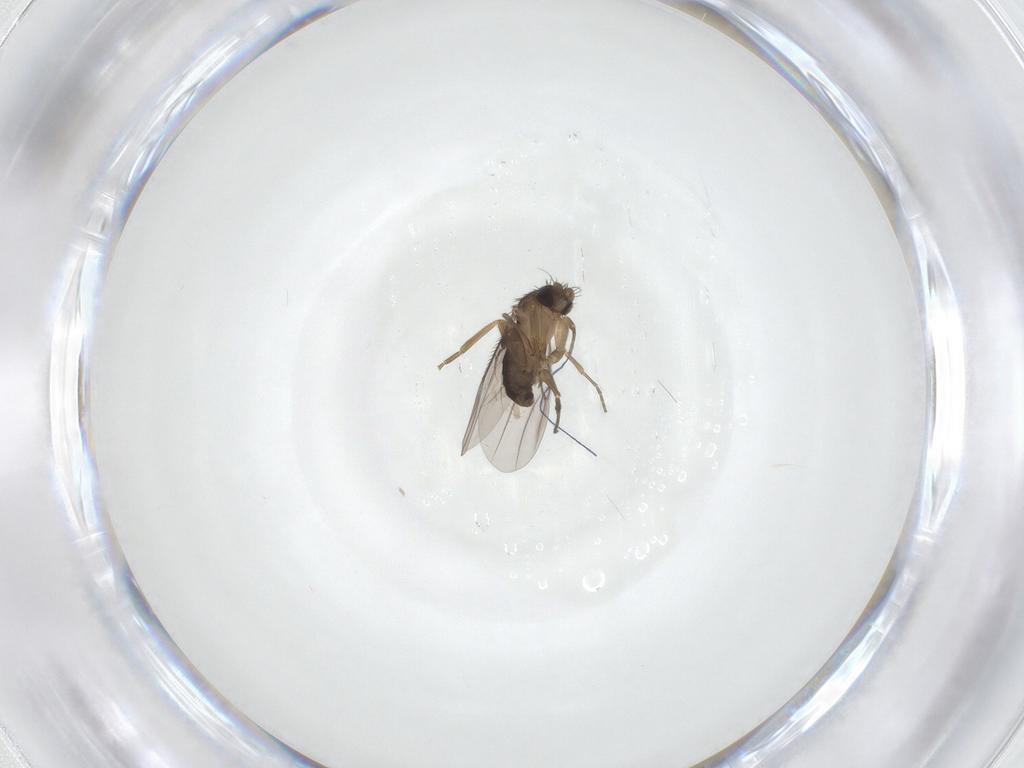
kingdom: Animalia
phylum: Arthropoda
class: Insecta
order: Diptera
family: Chironomidae
